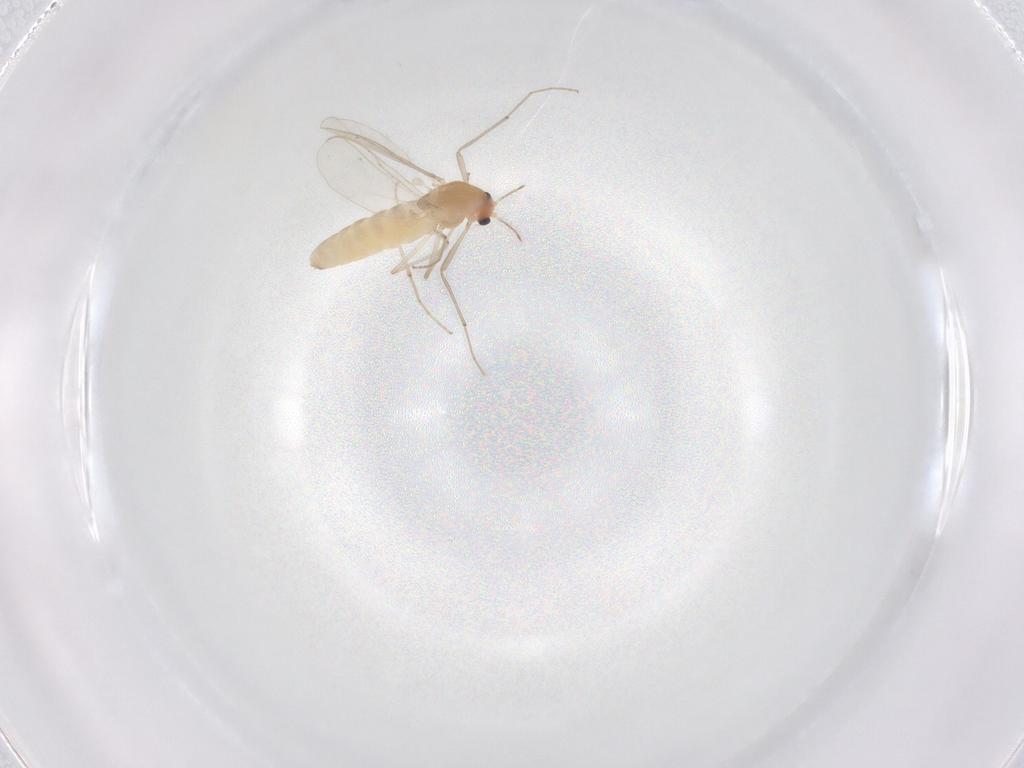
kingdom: Animalia
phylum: Arthropoda
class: Insecta
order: Diptera
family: Chironomidae
